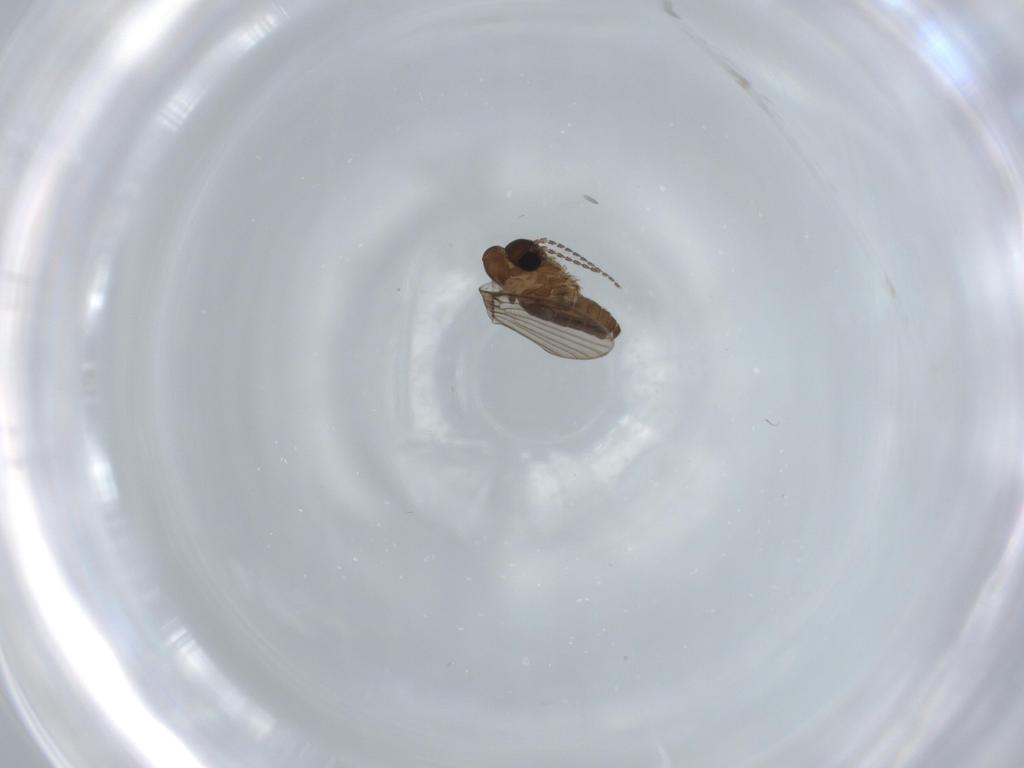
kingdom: Animalia
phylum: Arthropoda
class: Insecta
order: Diptera
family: Psychodidae
